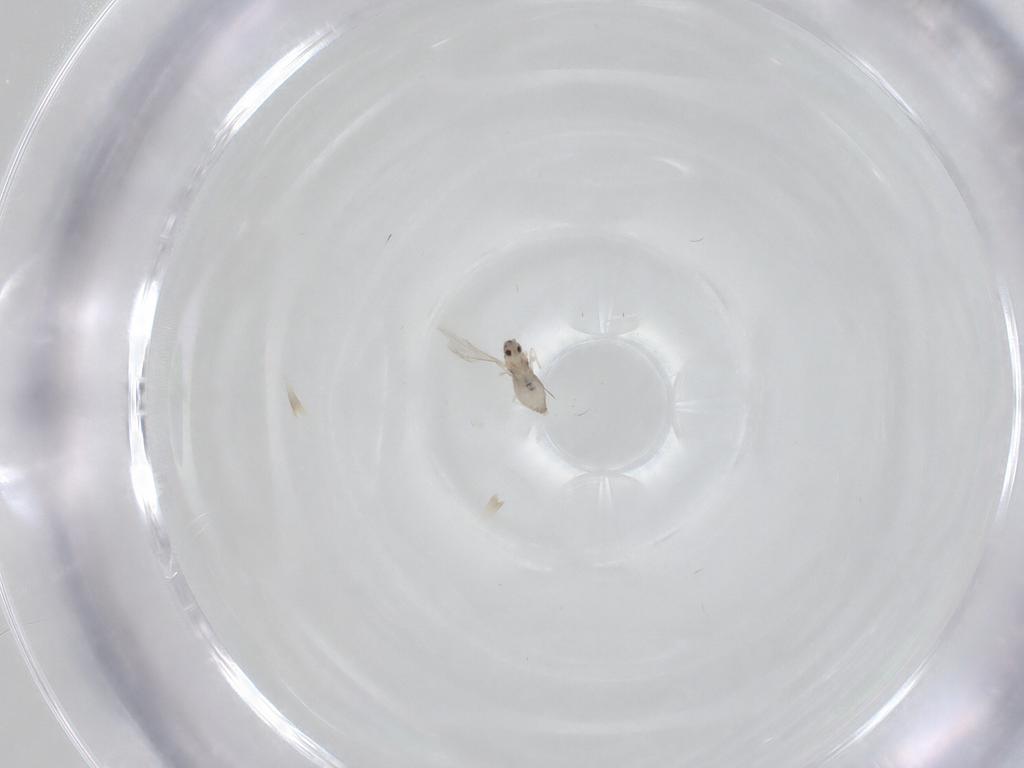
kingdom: Animalia
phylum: Arthropoda
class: Insecta
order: Diptera
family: Cecidomyiidae
